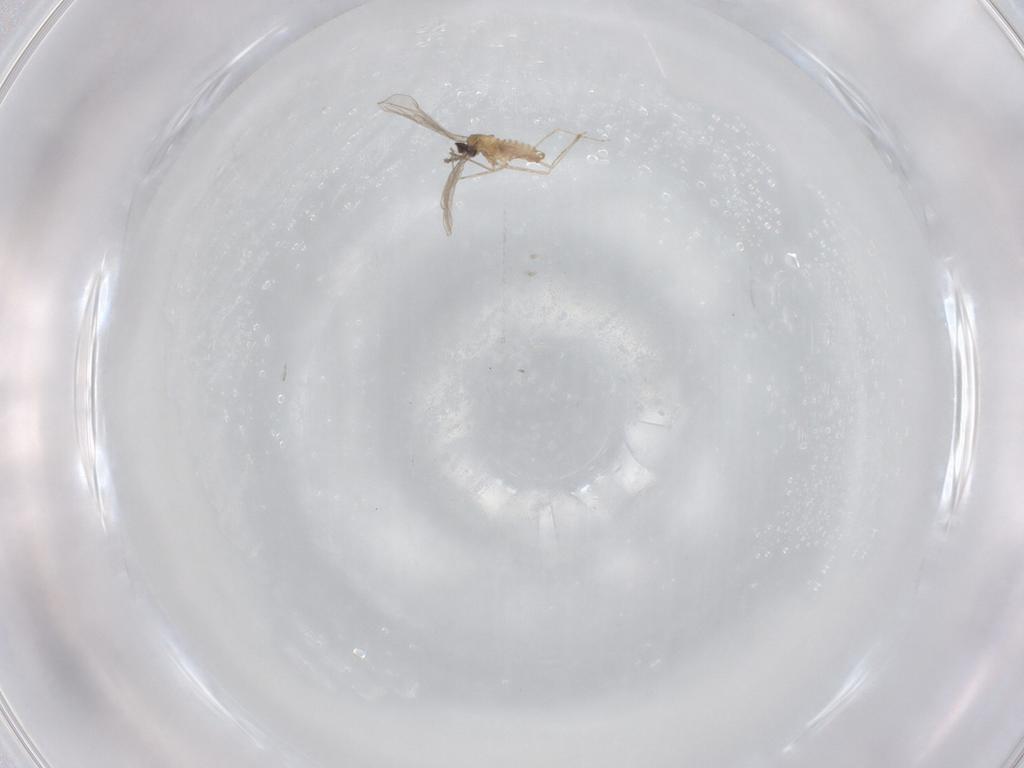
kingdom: Animalia
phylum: Arthropoda
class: Insecta
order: Diptera
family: Cecidomyiidae
